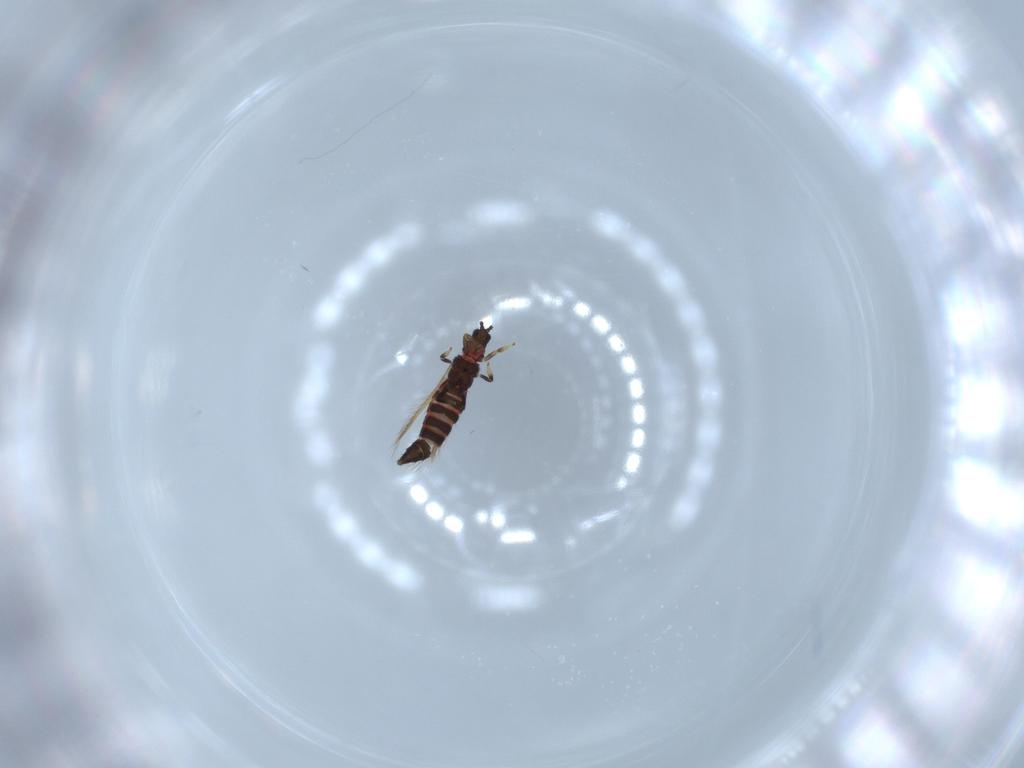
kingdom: Animalia
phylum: Arthropoda
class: Insecta
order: Thysanoptera
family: Thripidae
